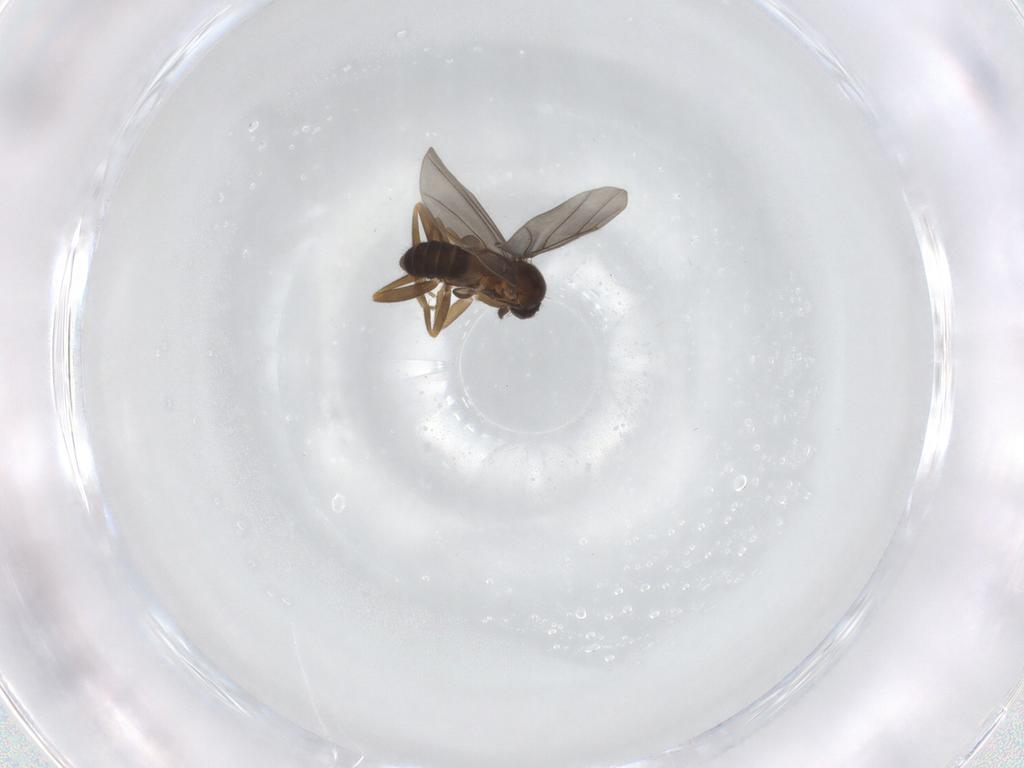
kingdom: Animalia
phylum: Arthropoda
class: Insecta
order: Diptera
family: Phoridae
